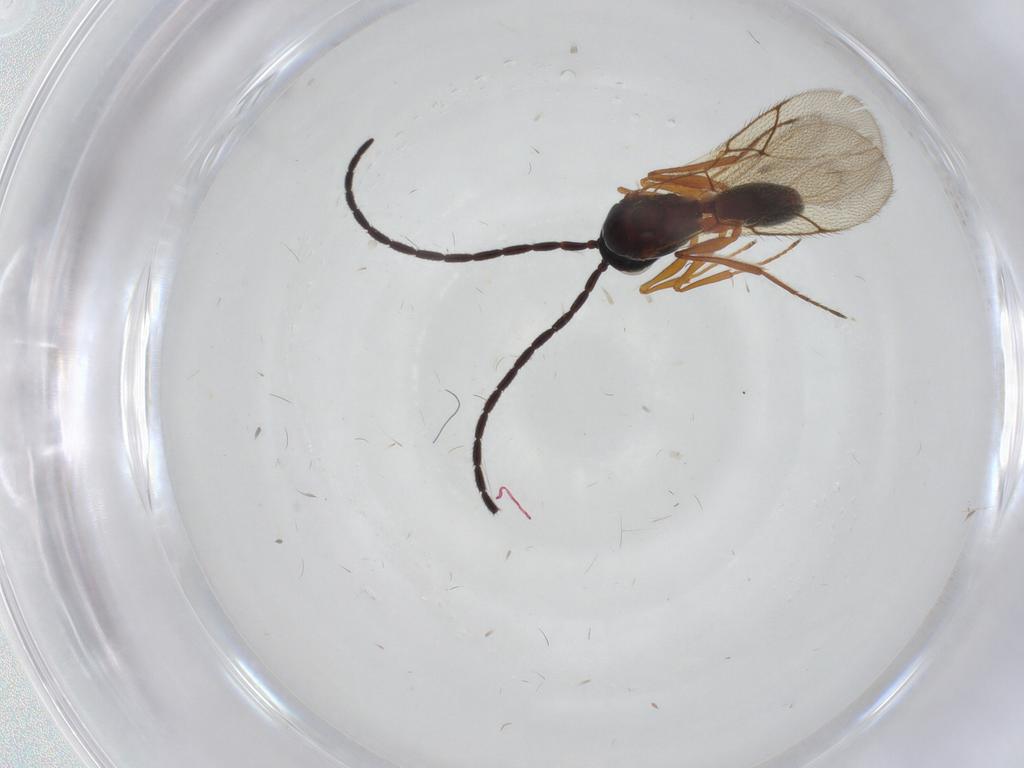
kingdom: Animalia
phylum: Arthropoda
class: Insecta
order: Hymenoptera
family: Figitidae
